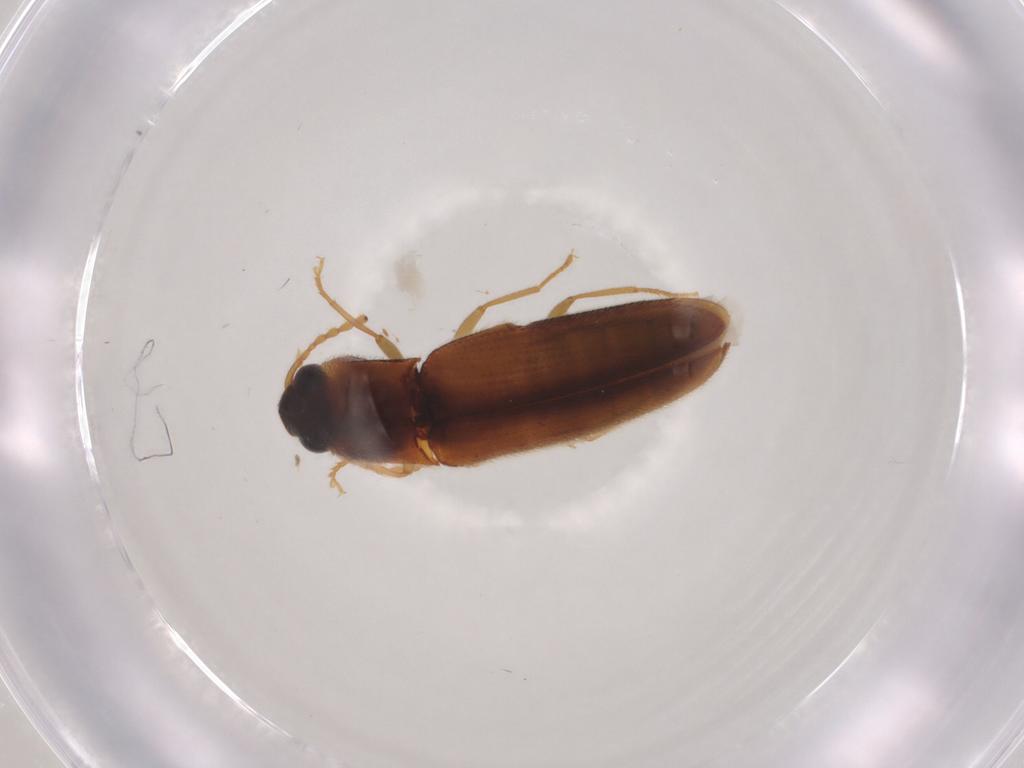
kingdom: Animalia
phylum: Arthropoda
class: Insecta
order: Coleoptera
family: Elateridae
